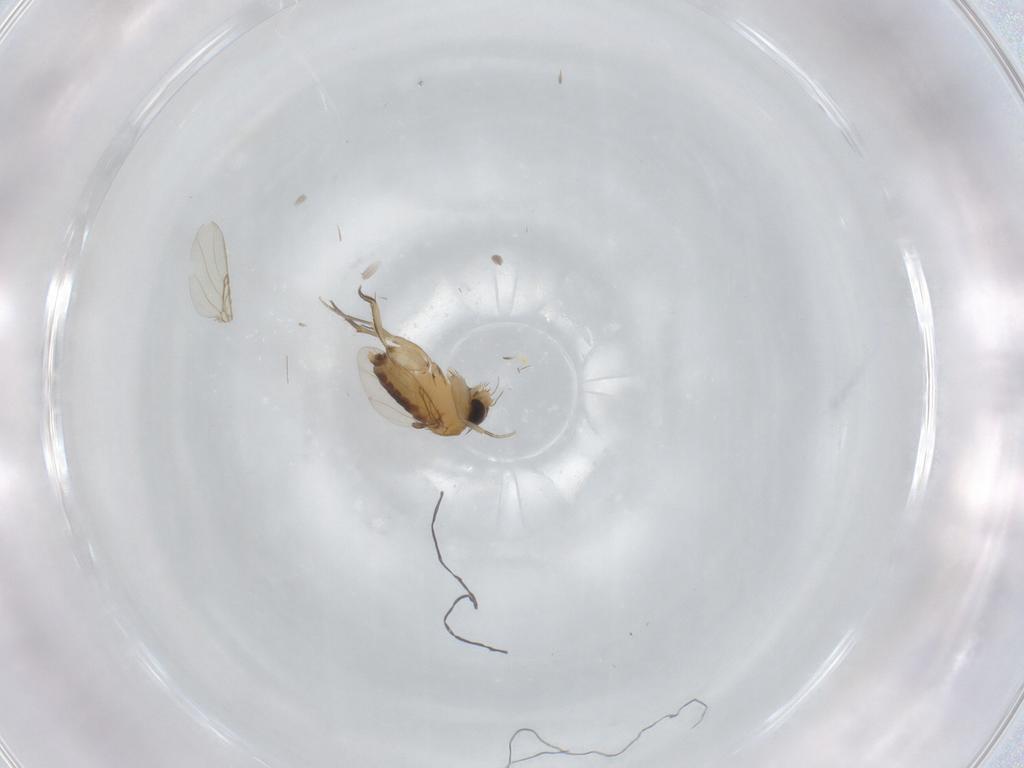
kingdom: Animalia
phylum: Arthropoda
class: Insecta
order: Diptera
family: Phoridae
